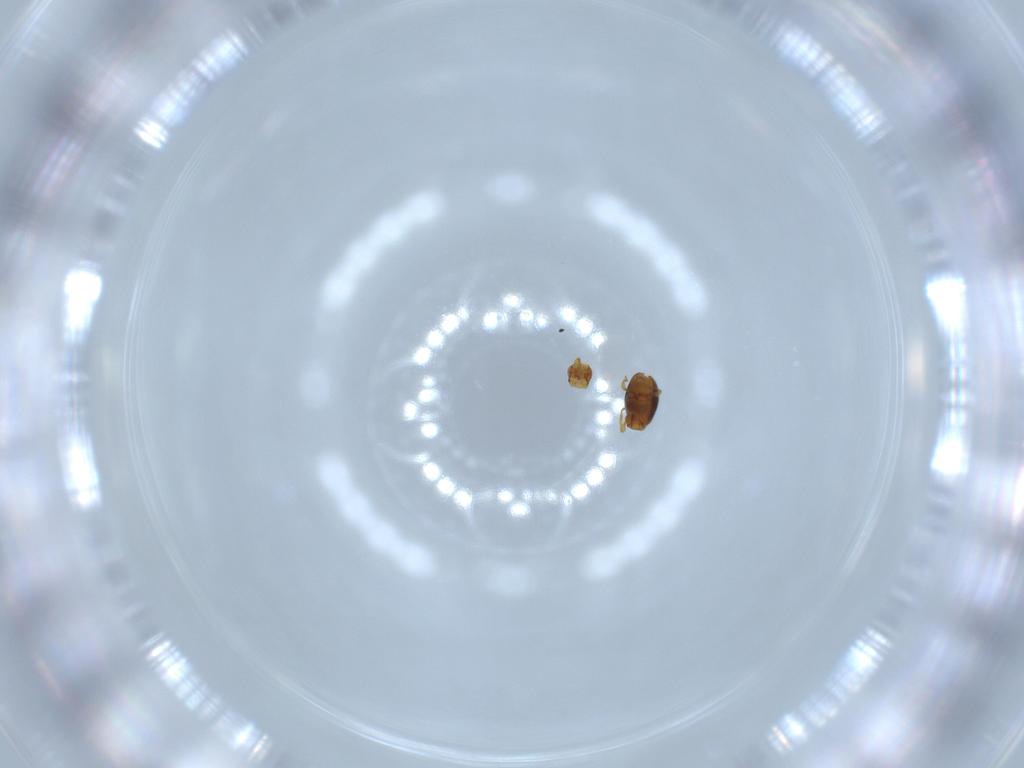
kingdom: Animalia
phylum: Arthropoda
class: Insecta
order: Coleoptera
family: Staphylinidae
